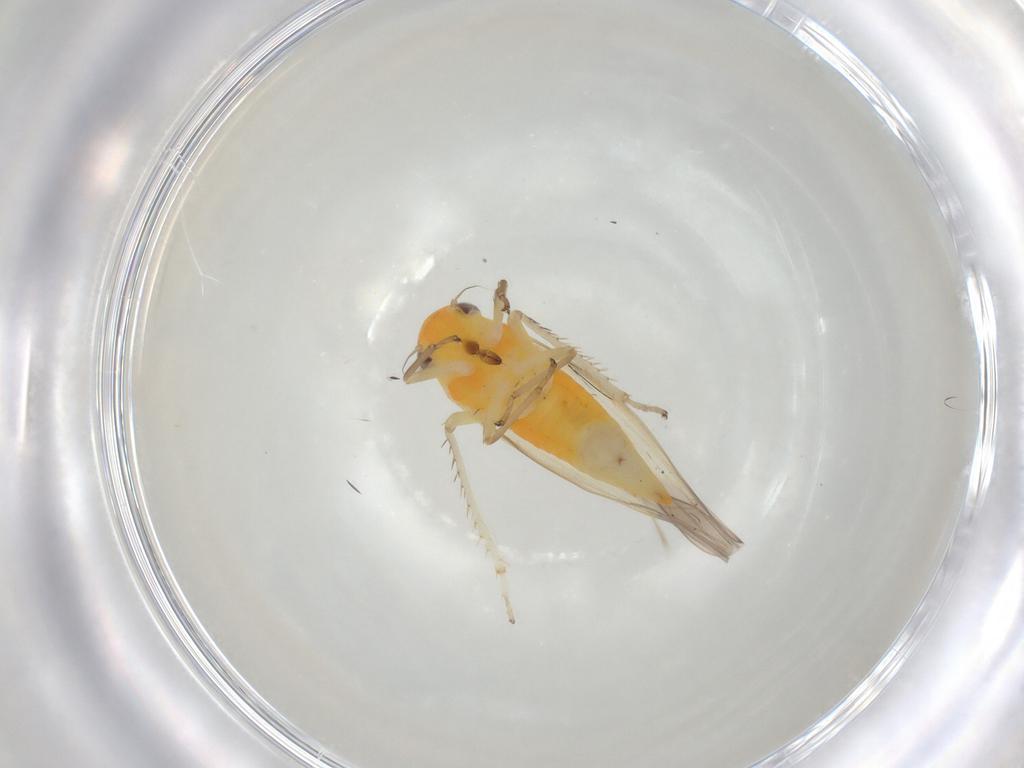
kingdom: Animalia
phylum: Arthropoda
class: Insecta
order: Hemiptera
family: Cicadellidae
